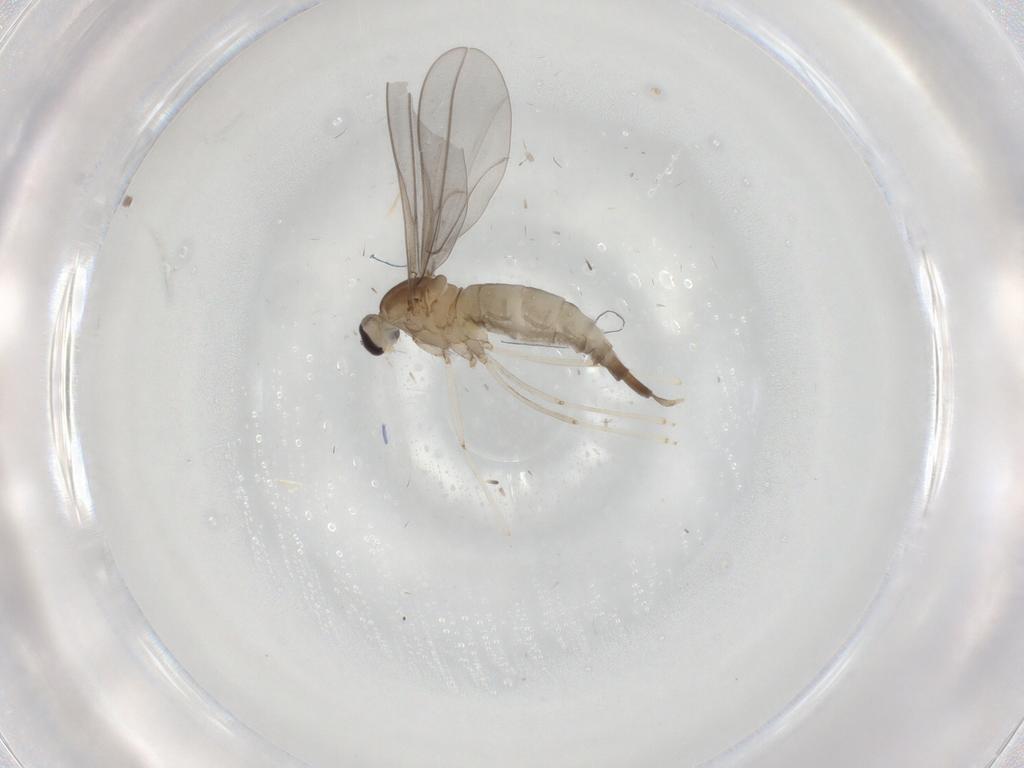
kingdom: Animalia
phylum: Arthropoda
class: Insecta
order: Diptera
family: Cecidomyiidae
